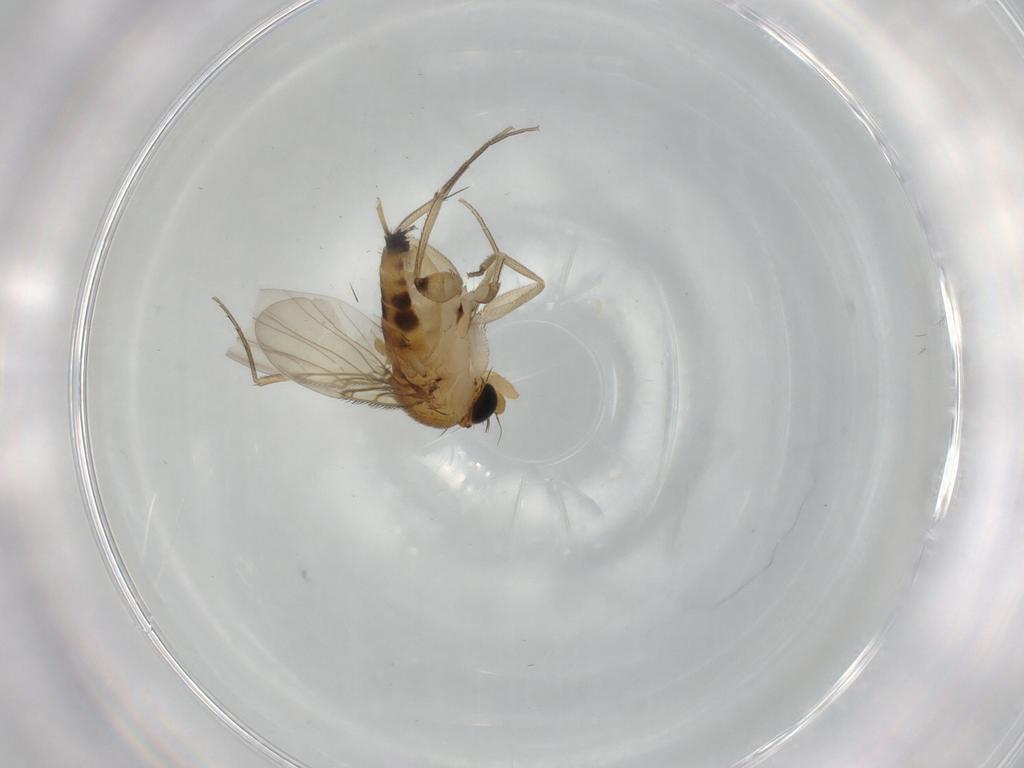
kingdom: Animalia
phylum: Arthropoda
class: Insecta
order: Diptera
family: Phoridae
